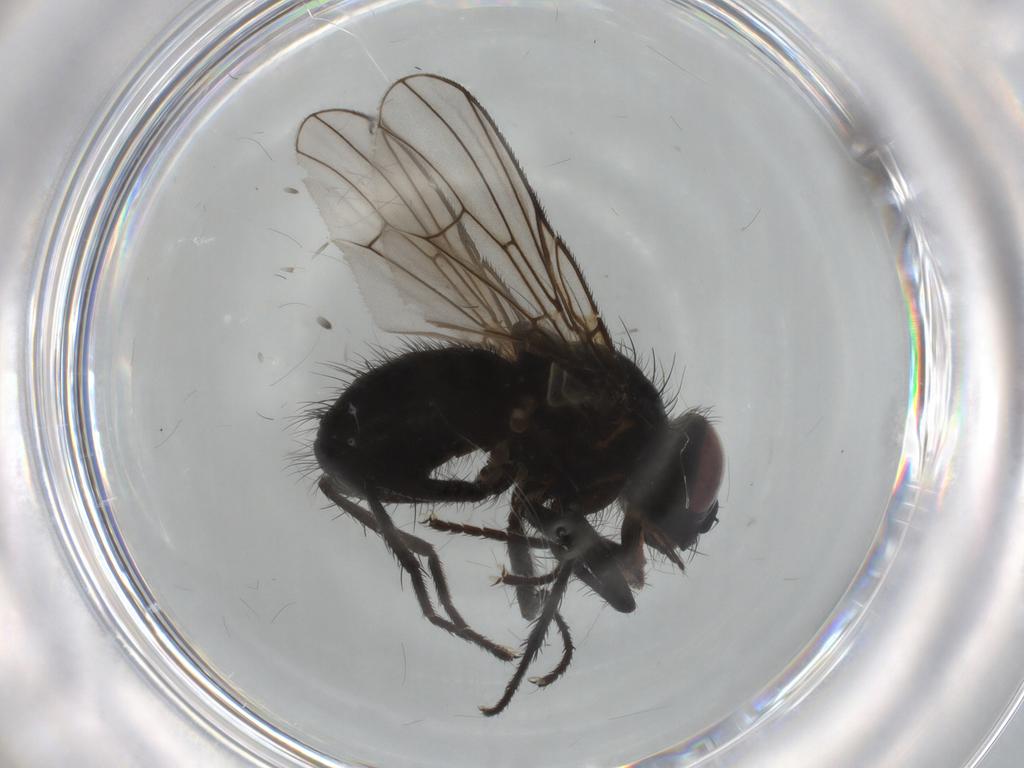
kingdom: Animalia
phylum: Arthropoda
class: Insecta
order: Diptera
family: Muscidae
